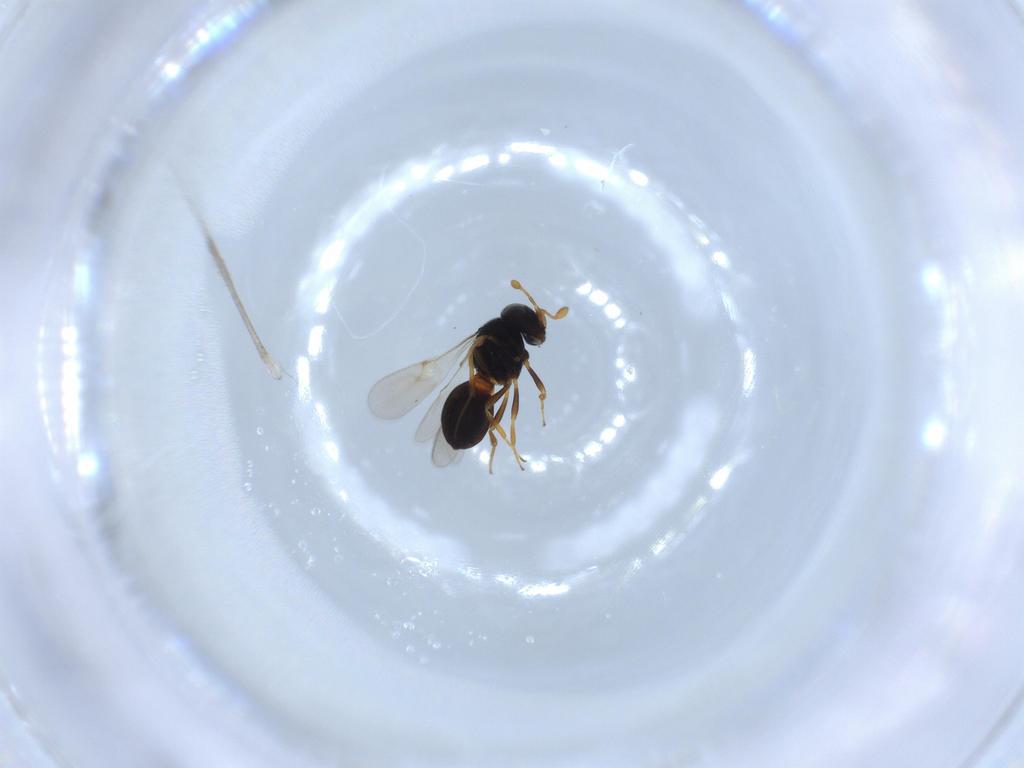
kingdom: Animalia
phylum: Arthropoda
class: Insecta
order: Hymenoptera
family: Scelionidae
